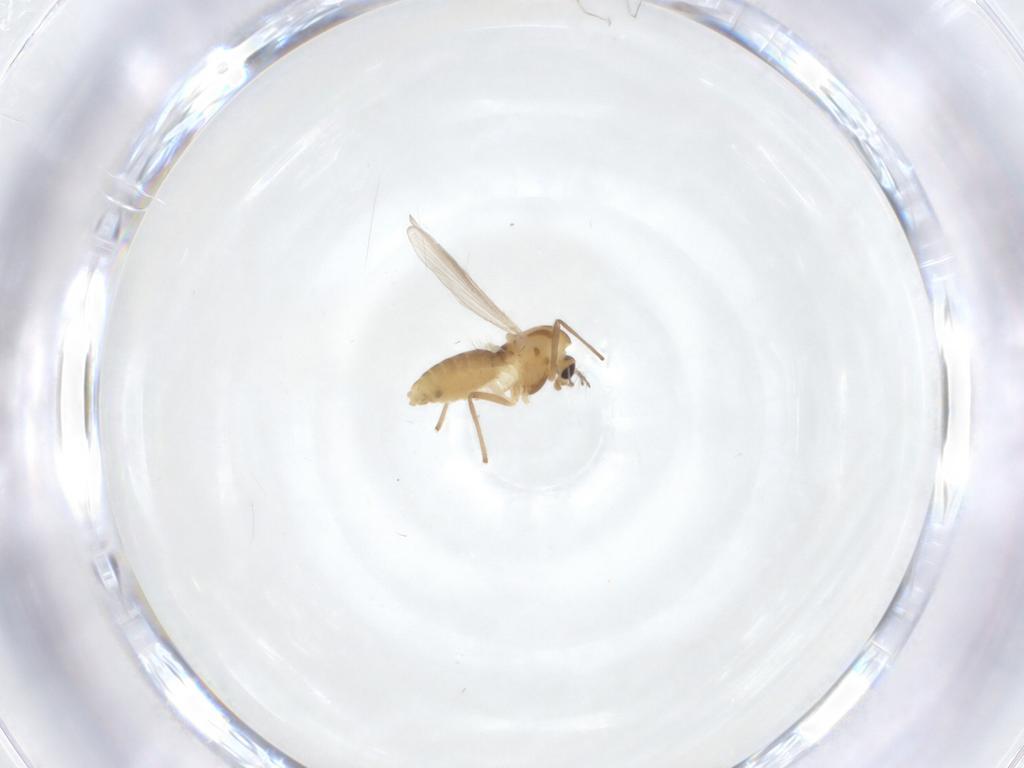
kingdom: Animalia
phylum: Arthropoda
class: Insecta
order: Diptera
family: Chironomidae
